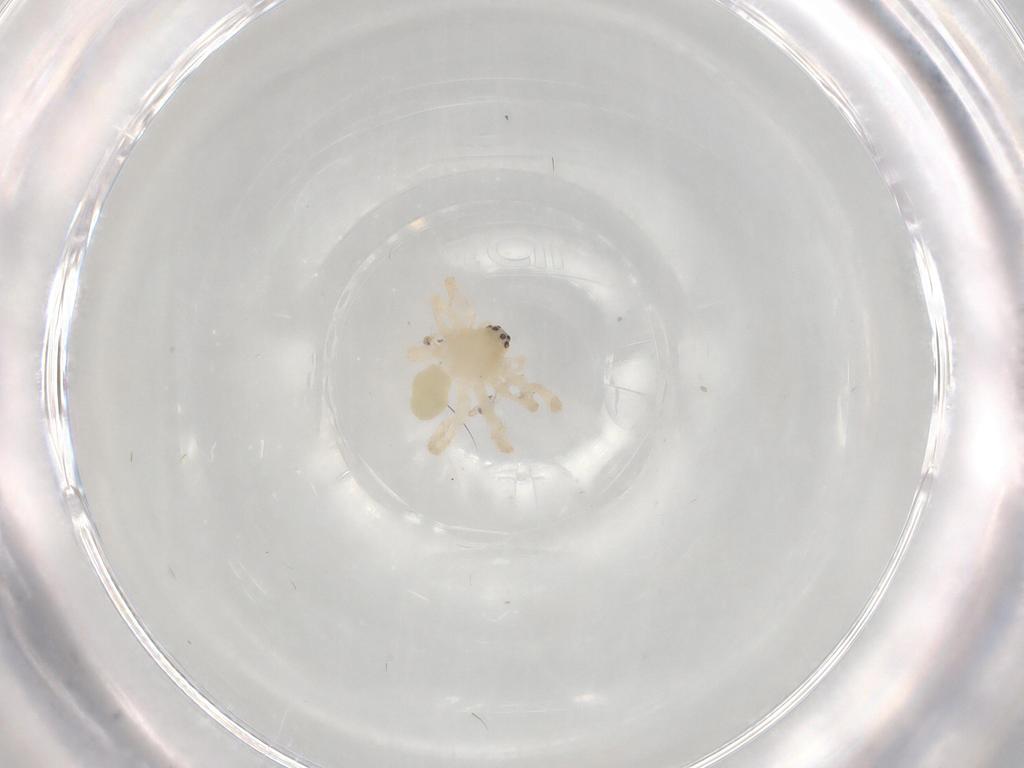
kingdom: Animalia
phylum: Arthropoda
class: Arachnida
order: Araneae
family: Anyphaenidae
